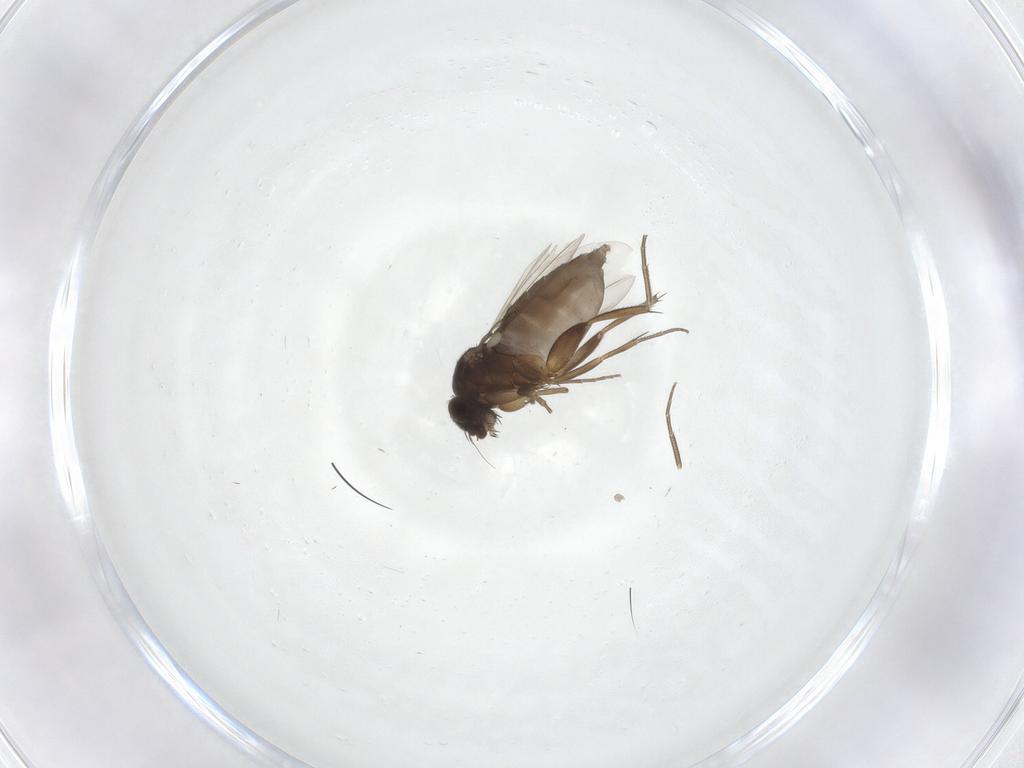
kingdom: Animalia
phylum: Arthropoda
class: Insecta
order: Diptera
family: Phoridae
